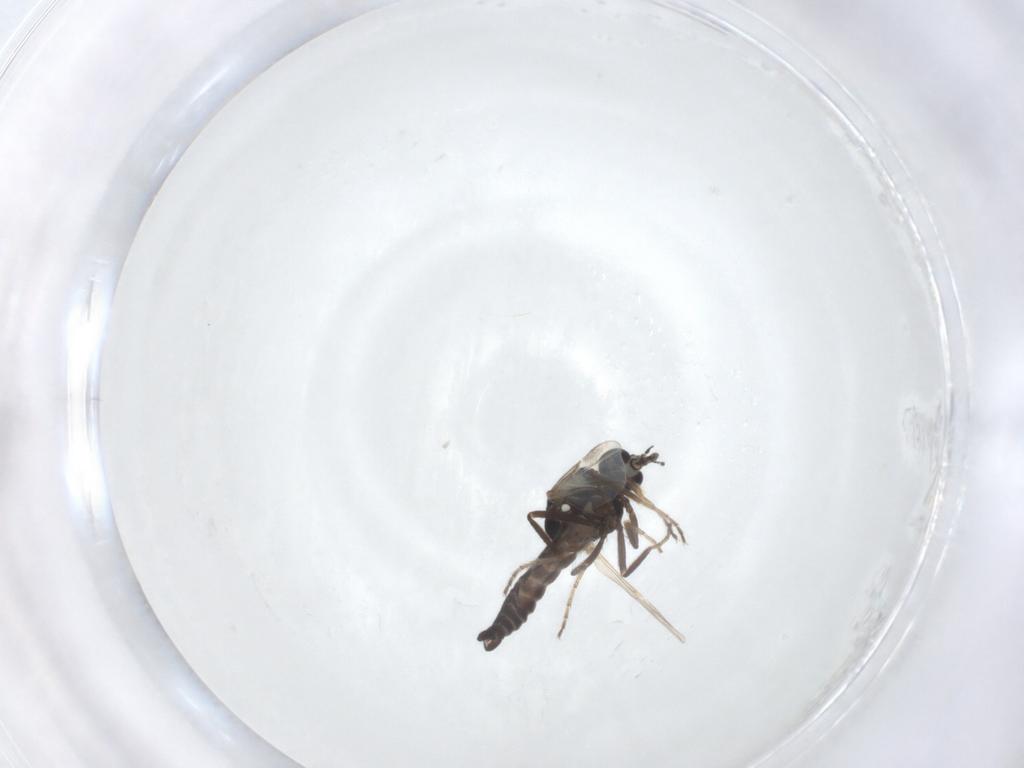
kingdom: Animalia
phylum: Arthropoda
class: Insecta
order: Diptera
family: Ceratopogonidae
